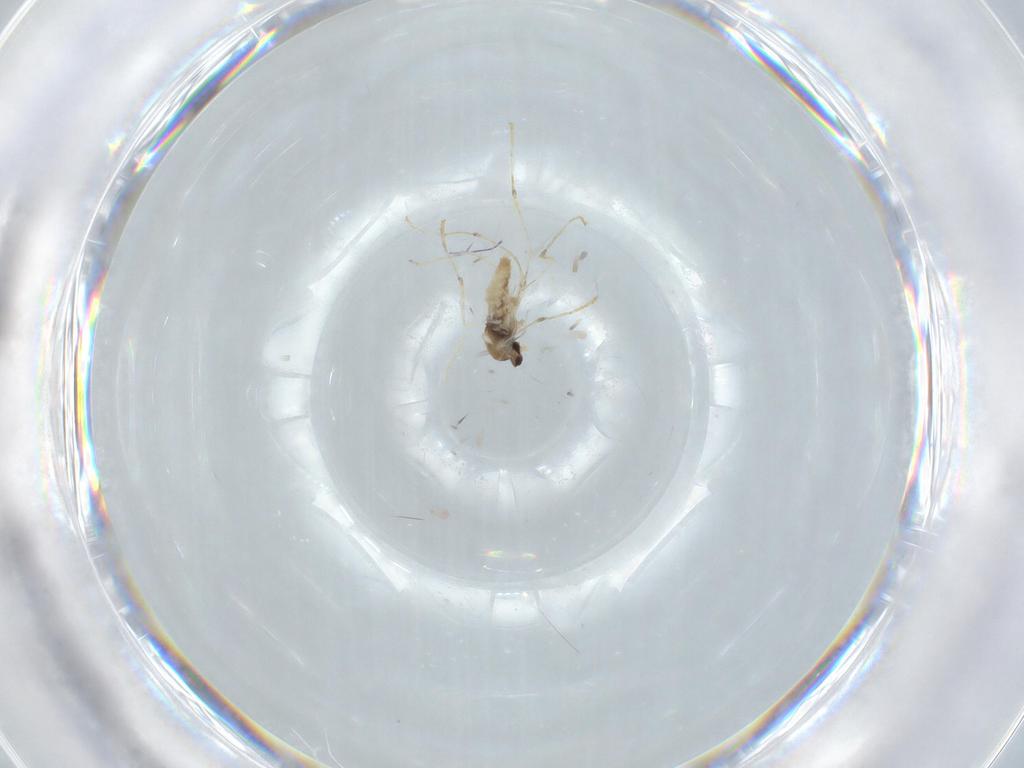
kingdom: Animalia
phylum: Arthropoda
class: Insecta
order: Diptera
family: Cecidomyiidae
